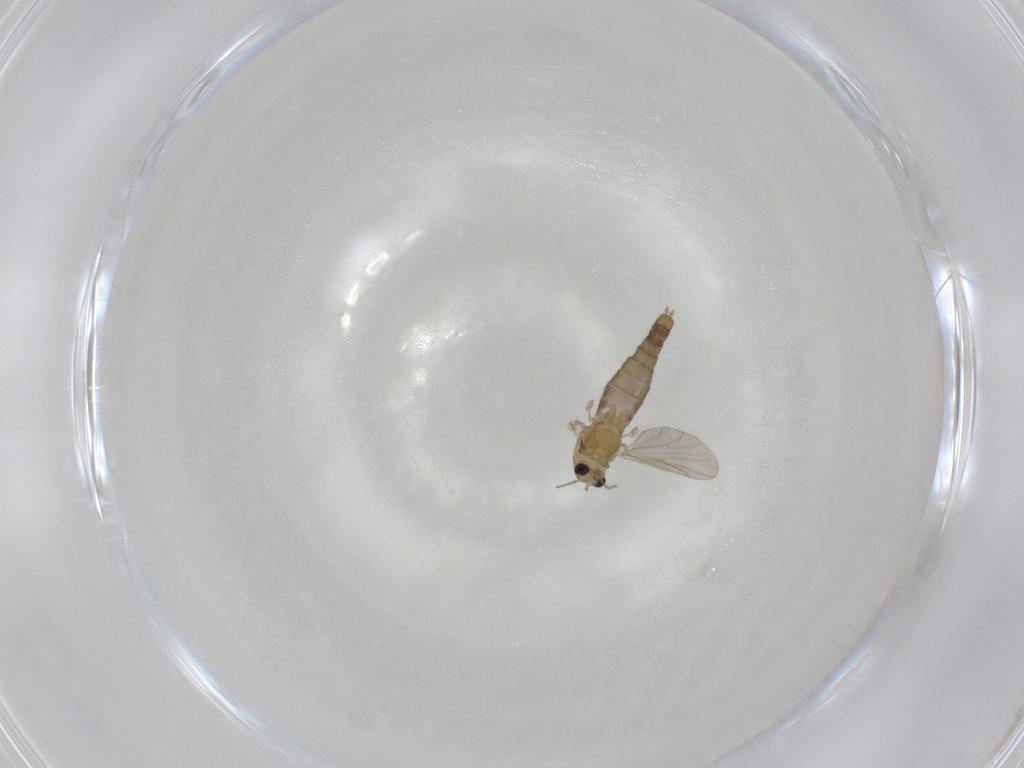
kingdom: Animalia
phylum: Arthropoda
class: Insecta
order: Diptera
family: Chironomidae
